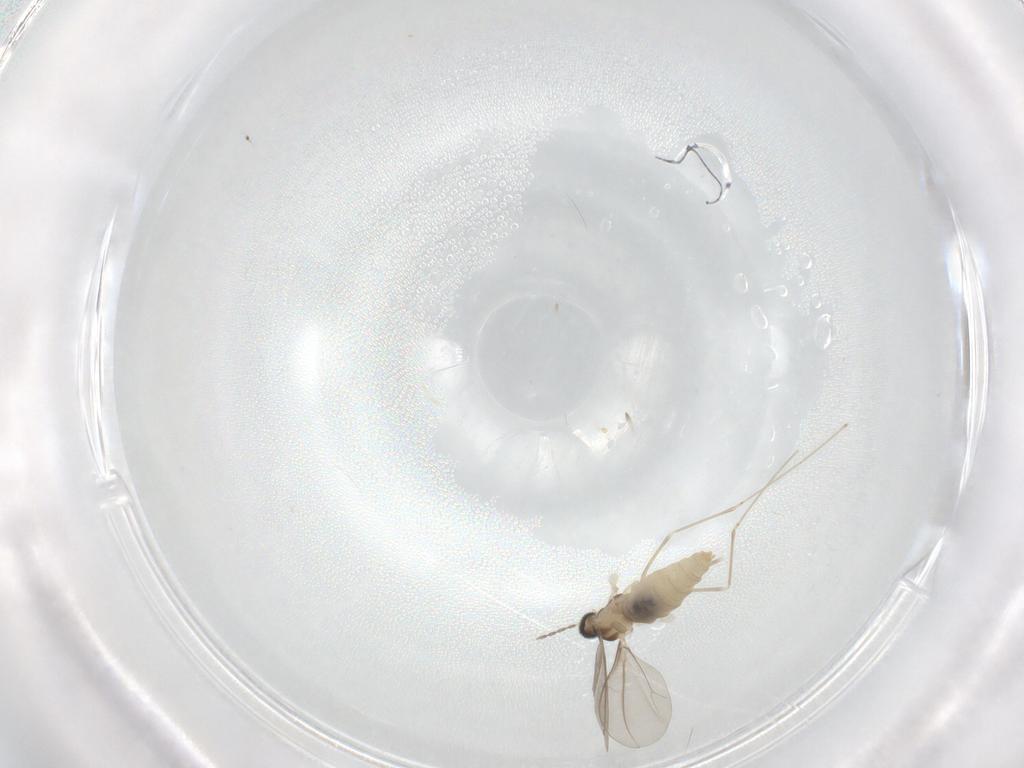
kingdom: Animalia
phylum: Arthropoda
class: Insecta
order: Diptera
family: Cecidomyiidae
